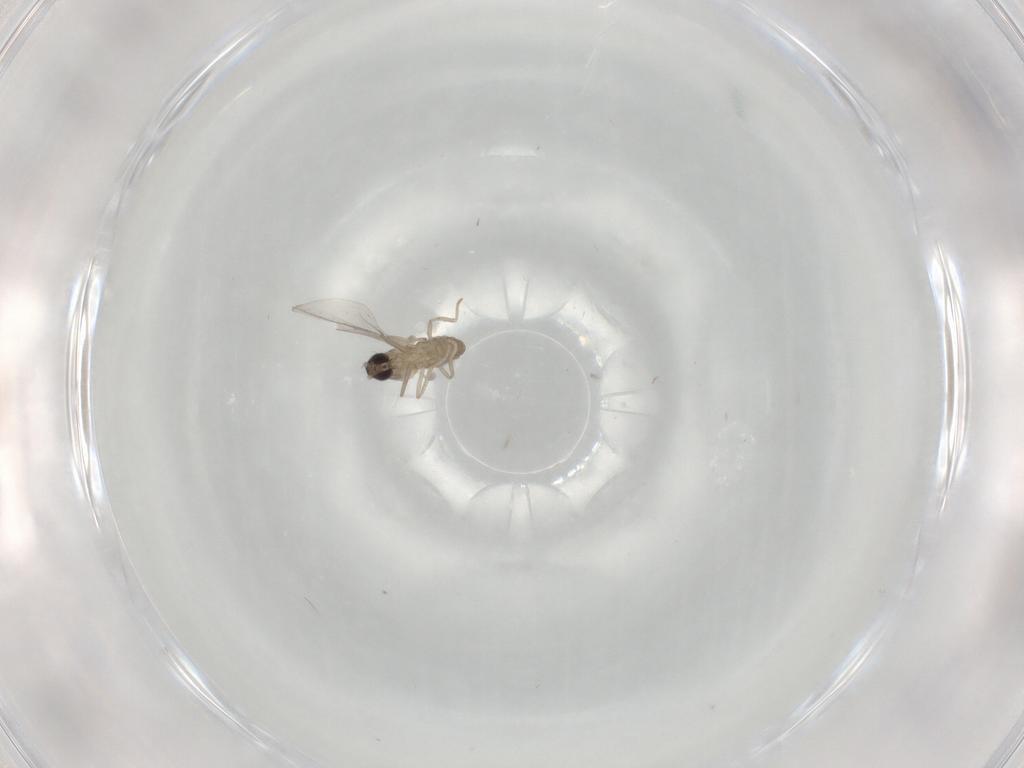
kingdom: Animalia
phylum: Arthropoda
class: Insecta
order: Diptera
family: Cecidomyiidae
